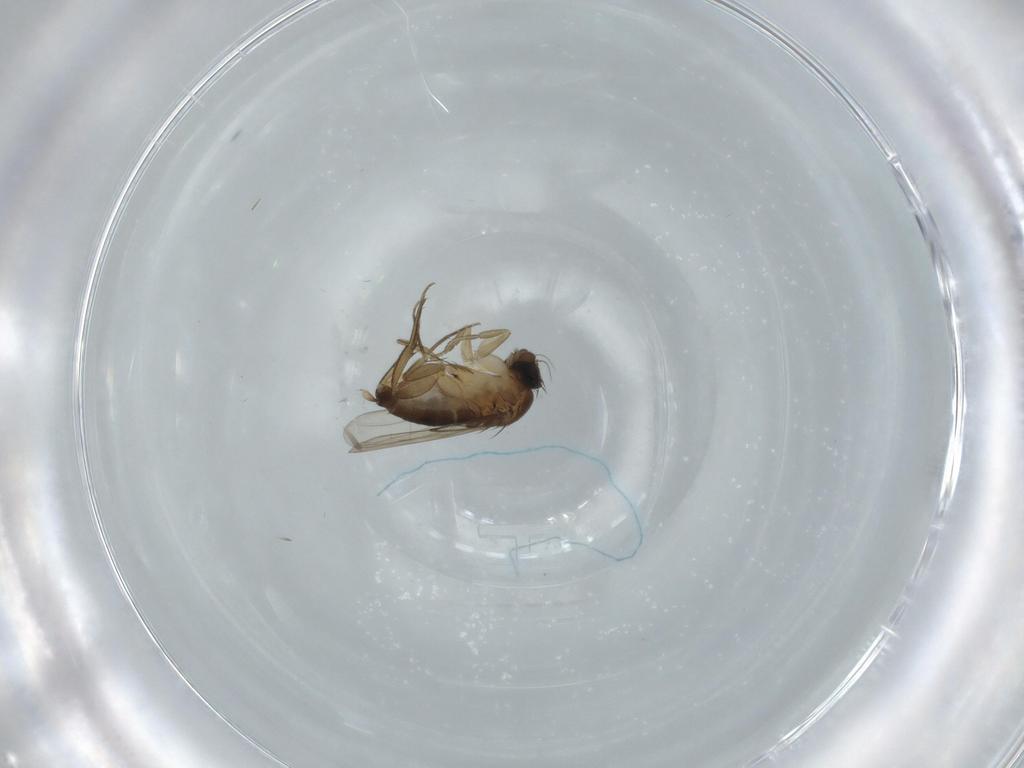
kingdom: Animalia
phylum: Arthropoda
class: Insecta
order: Diptera
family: Phoridae
